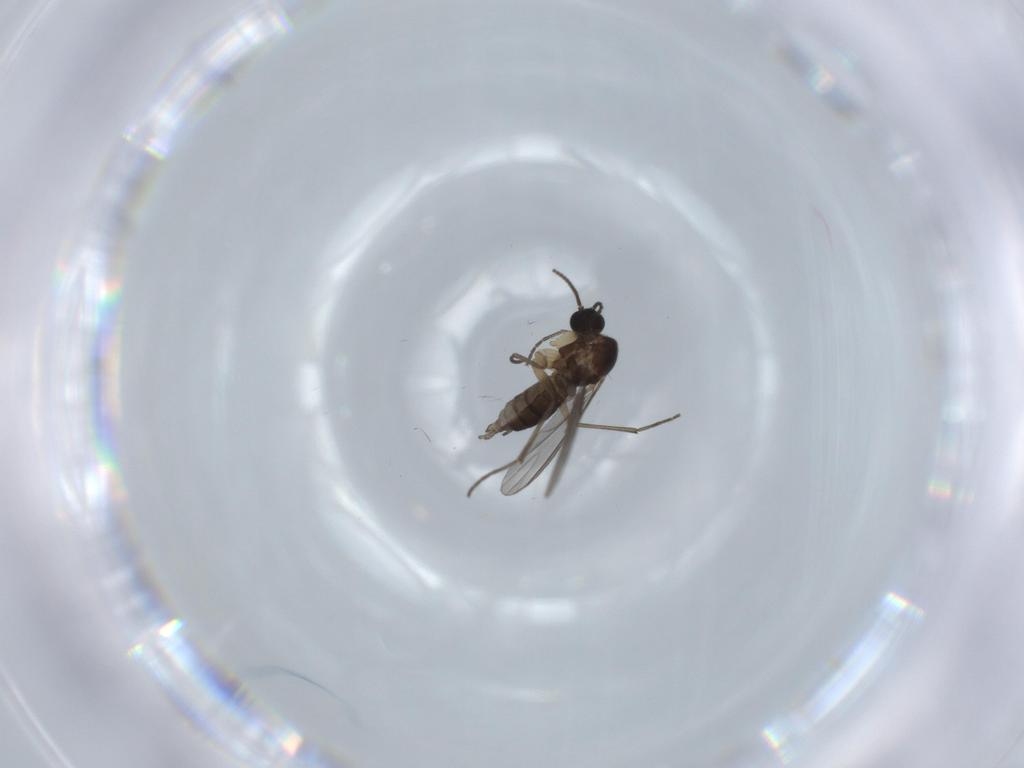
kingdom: Animalia
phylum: Arthropoda
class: Insecta
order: Diptera
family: Sciaridae
